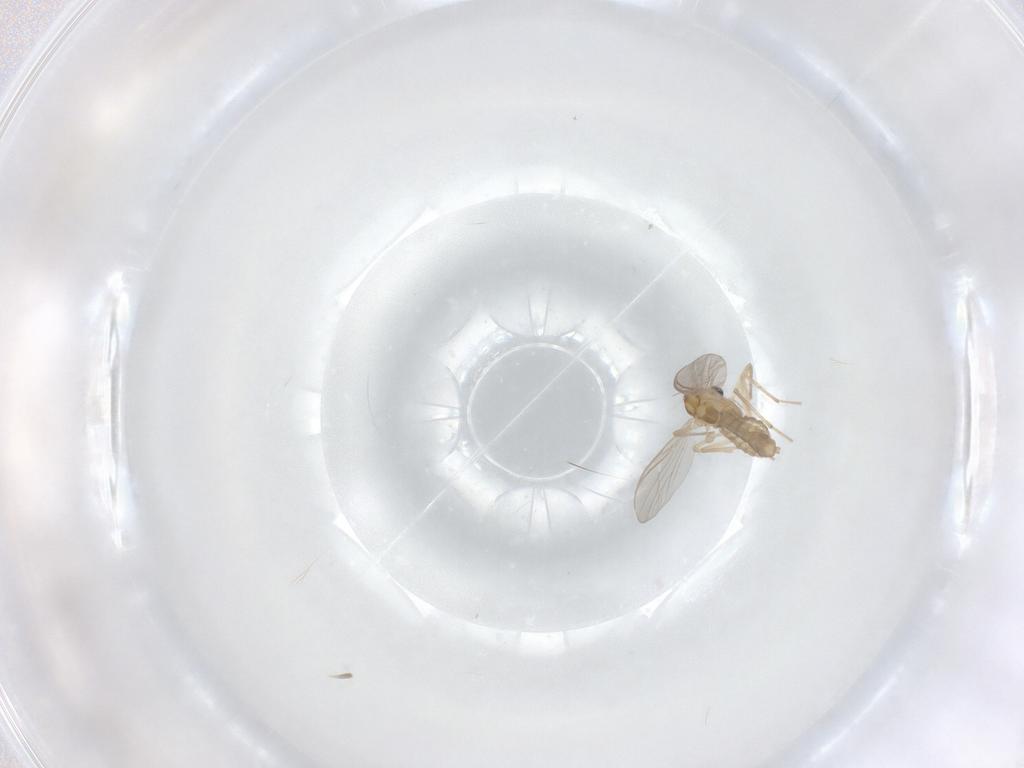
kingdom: Animalia
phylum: Arthropoda
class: Insecta
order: Diptera
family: Chironomidae
